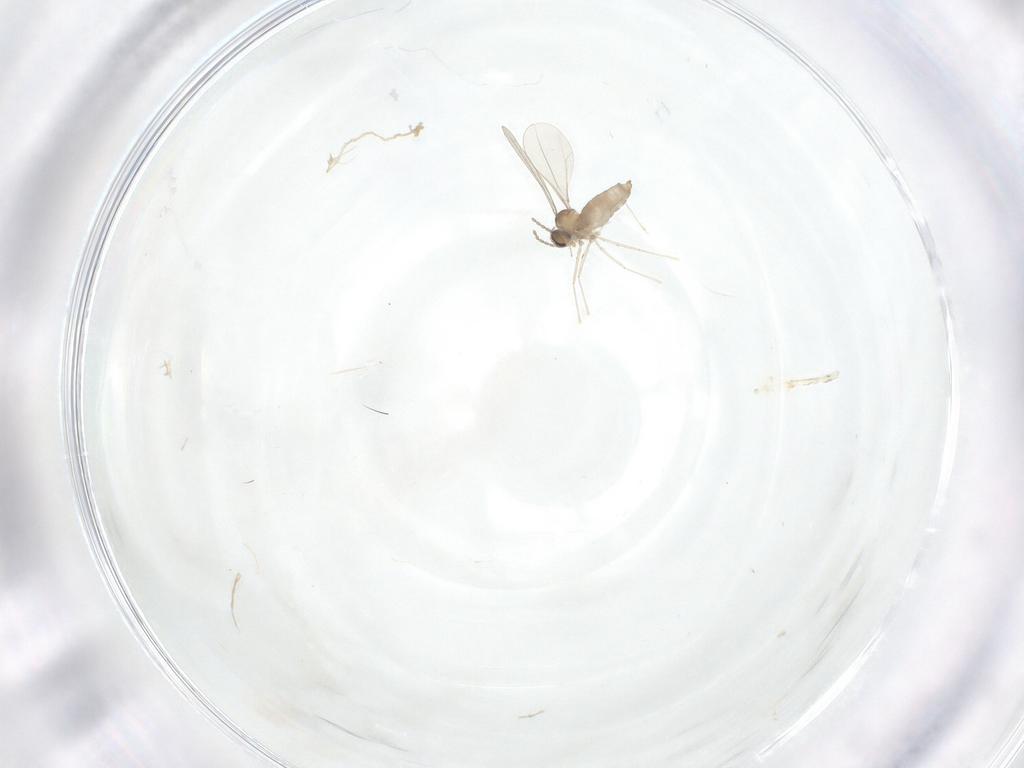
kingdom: Animalia
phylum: Arthropoda
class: Insecta
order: Diptera
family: Cecidomyiidae
